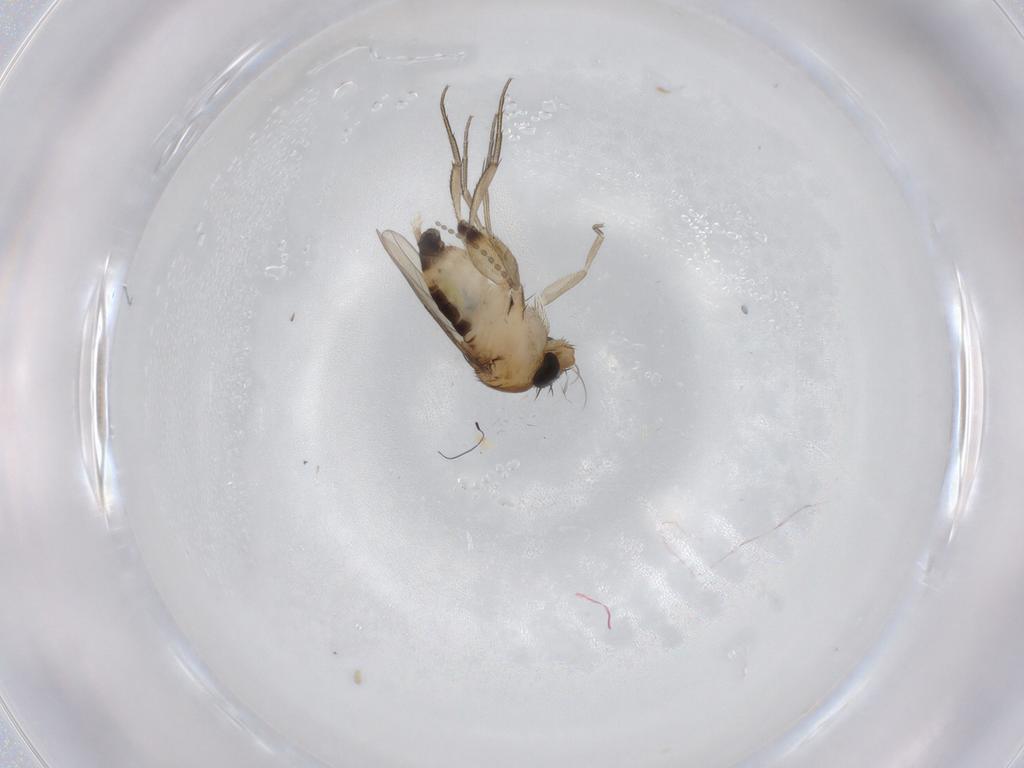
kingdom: Animalia
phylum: Arthropoda
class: Insecta
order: Diptera
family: Phoridae
